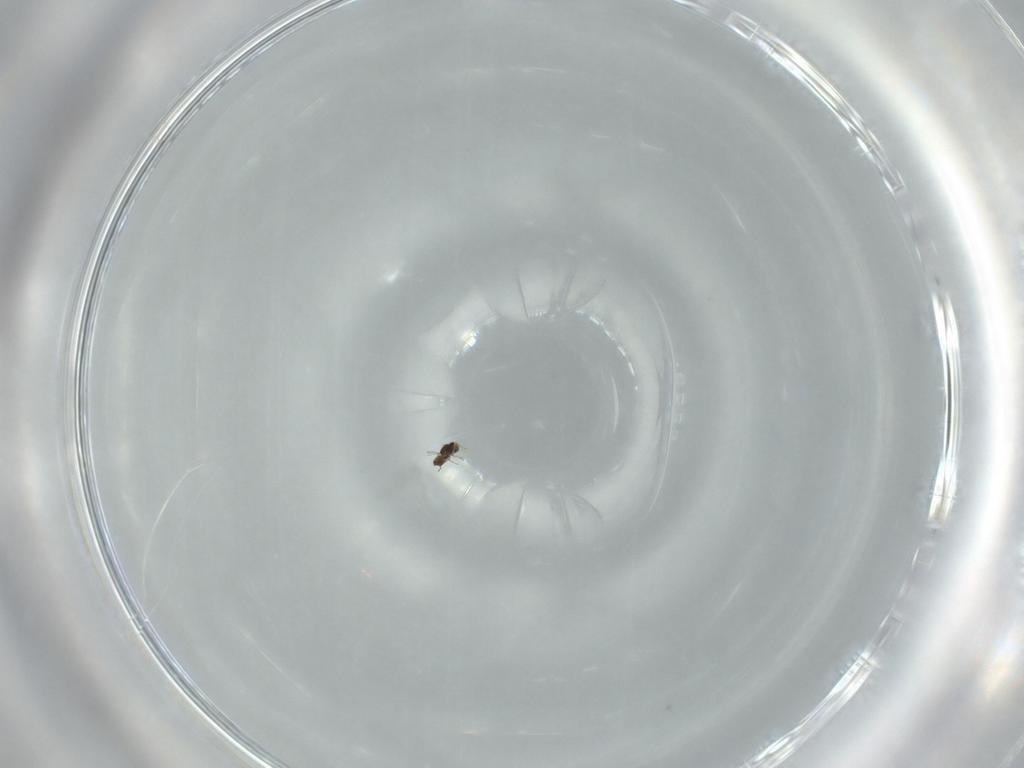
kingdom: Animalia
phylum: Arthropoda
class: Insecta
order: Hymenoptera
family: Mymaridae
